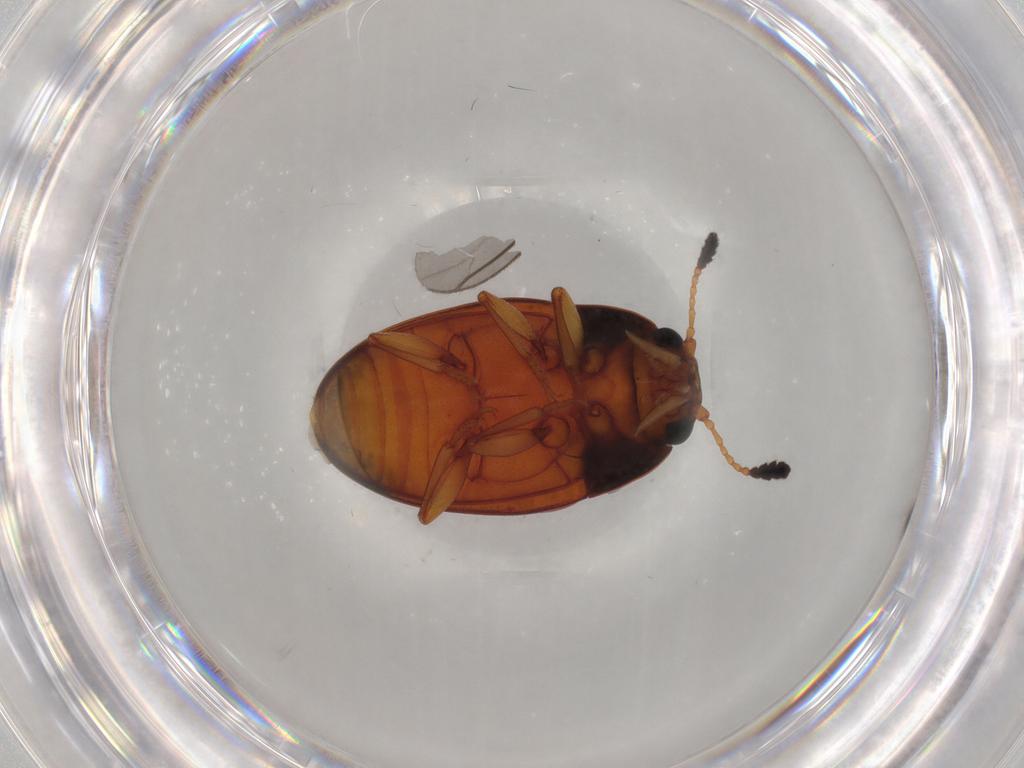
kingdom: Animalia
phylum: Arthropoda
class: Insecta
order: Coleoptera
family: Erotylidae
